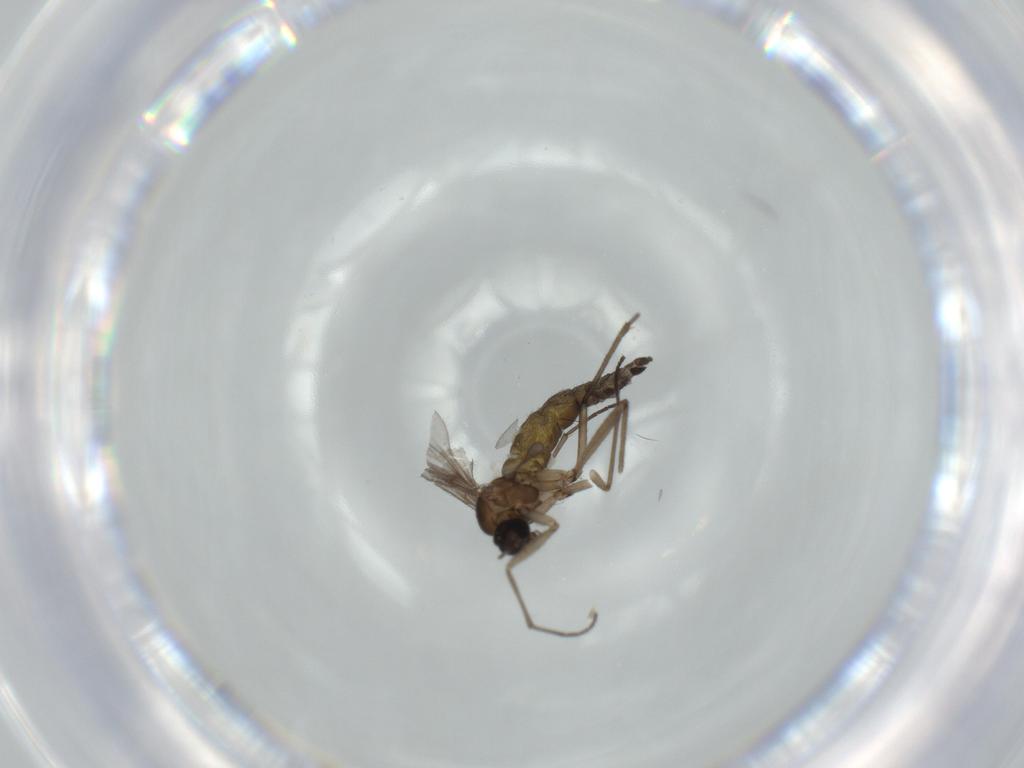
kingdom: Animalia
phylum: Arthropoda
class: Insecta
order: Diptera
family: Sciaridae
